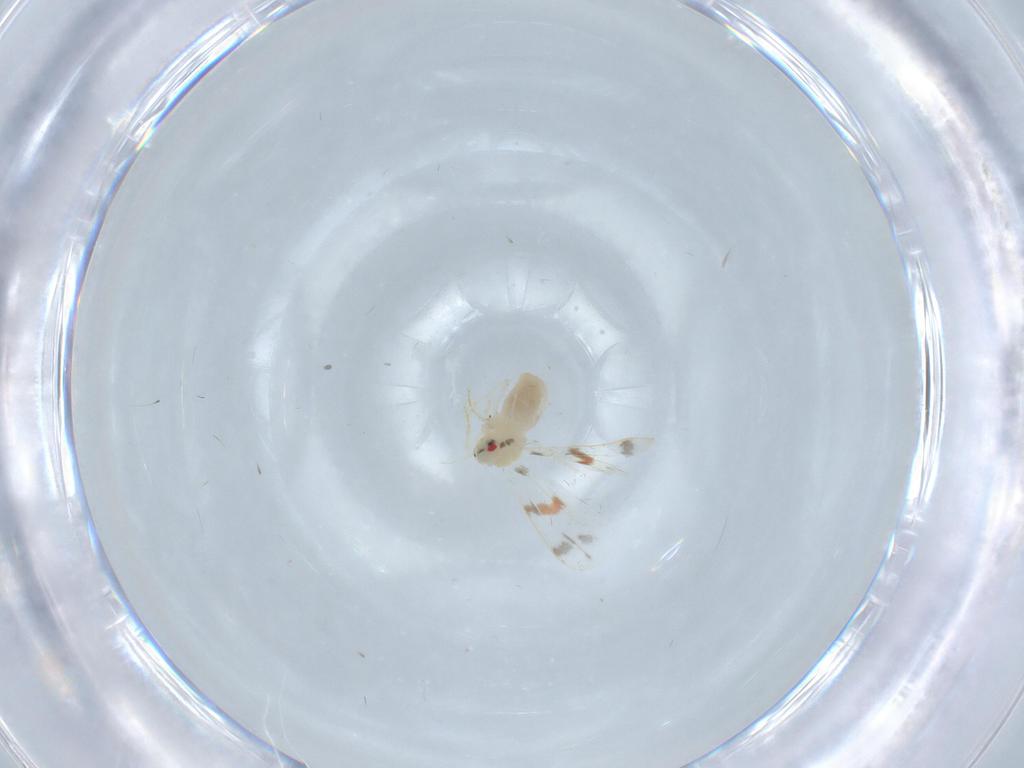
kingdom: Animalia
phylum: Arthropoda
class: Insecta
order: Hemiptera
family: Aleyrodidae
